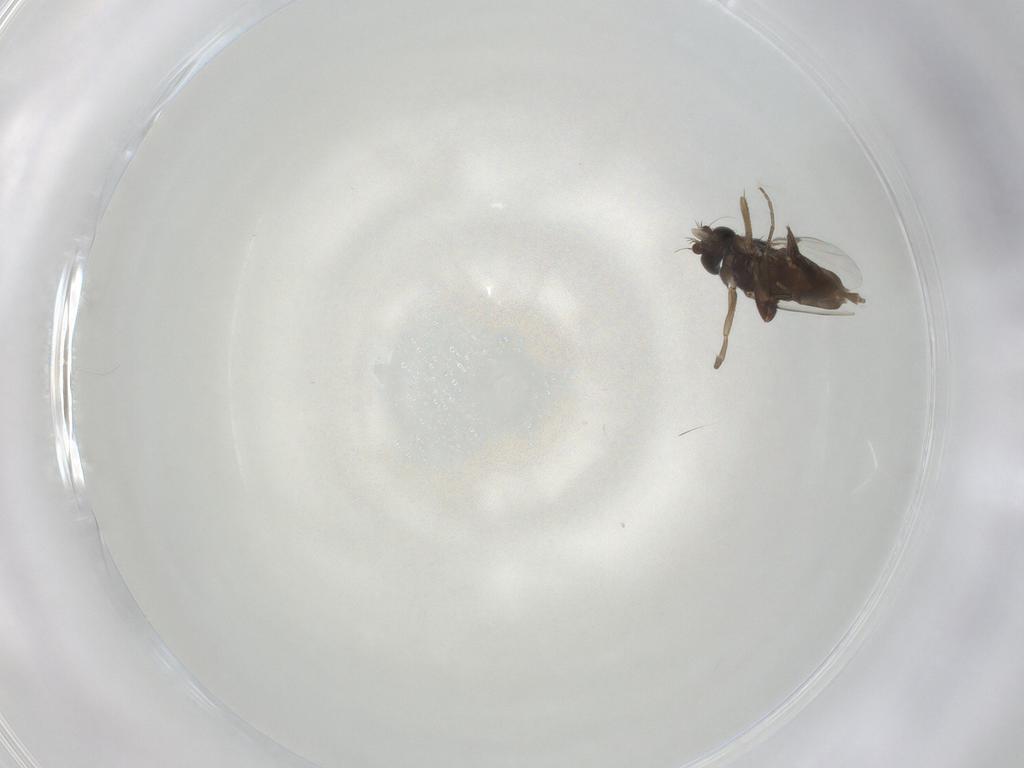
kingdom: Animalia
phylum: Arthropoda
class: Insecta
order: Diptera
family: Phoridae
